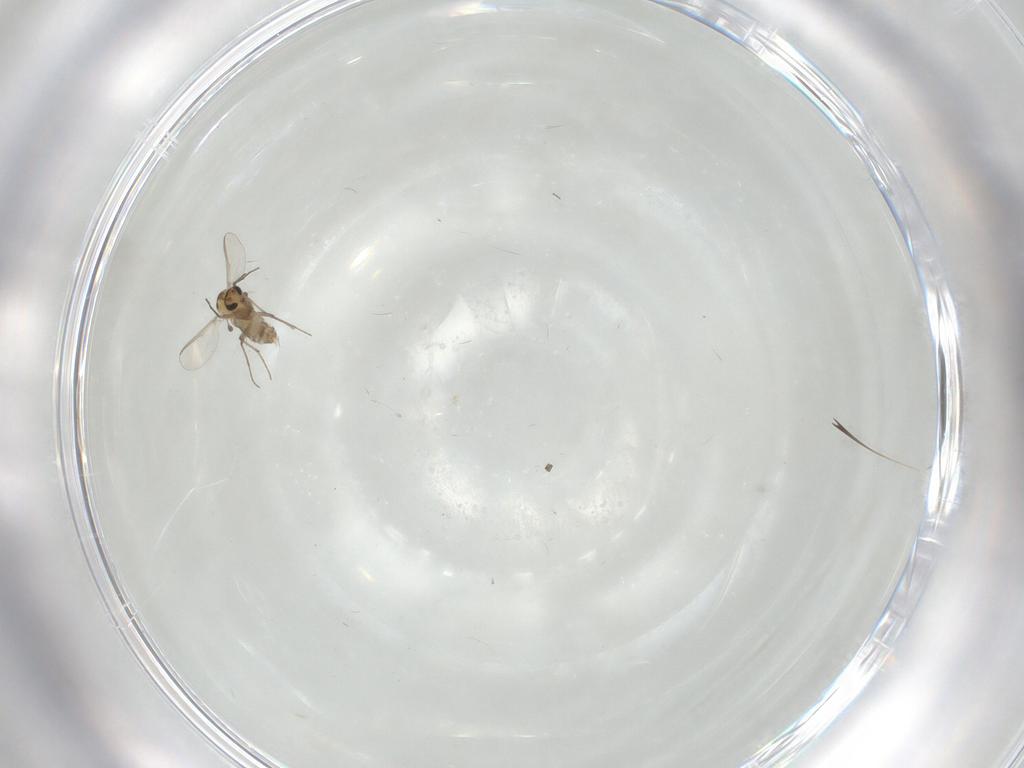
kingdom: Animalia
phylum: Arthropoda
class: Insecta
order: Diptera
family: Chironomidae
